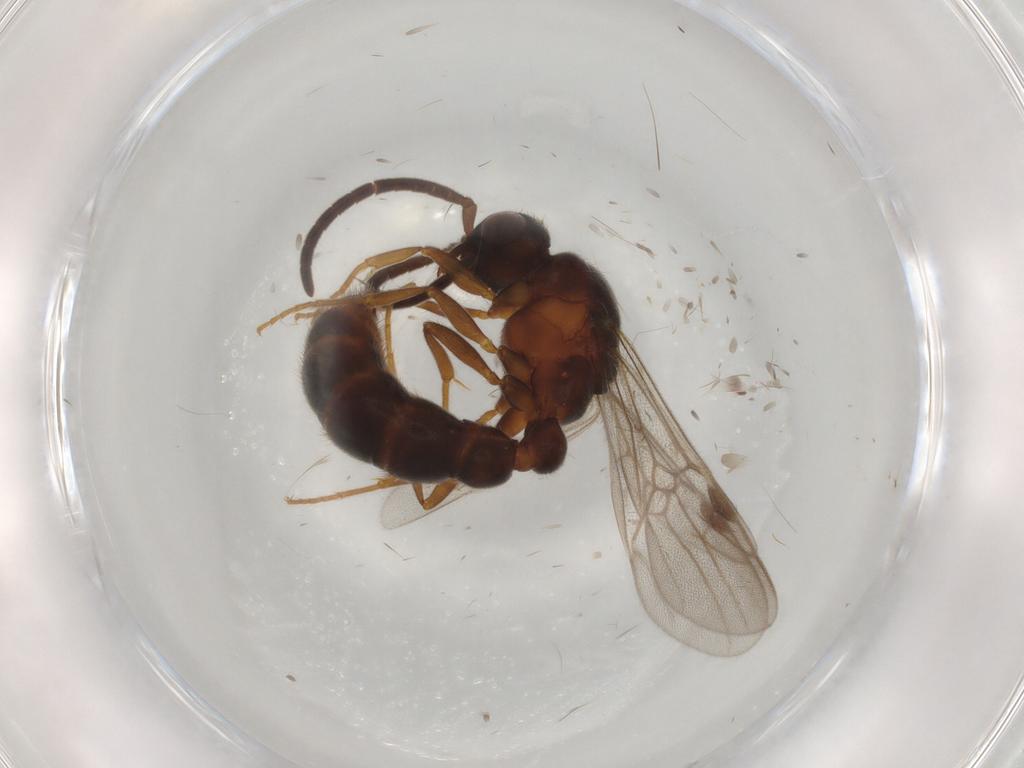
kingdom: Animalia
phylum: Arthropoda
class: Insecta
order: Hymenoptera
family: Formicidae
